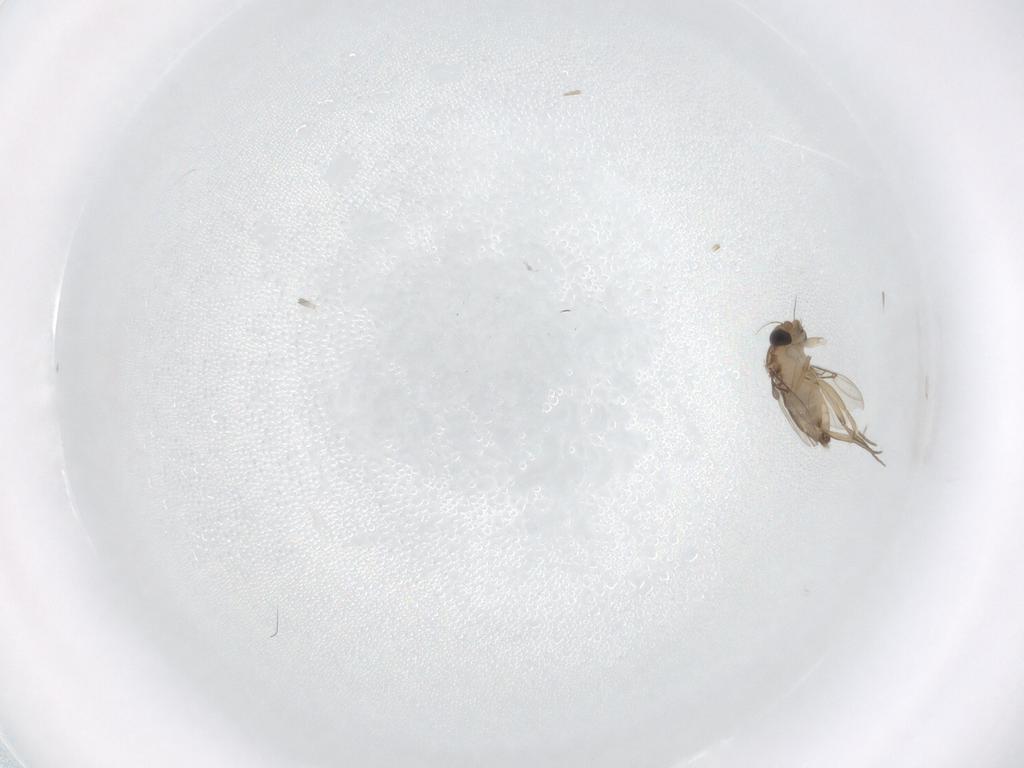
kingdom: Animalia
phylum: Arthropoda
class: Insecta
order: Diptera
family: Phoridae
